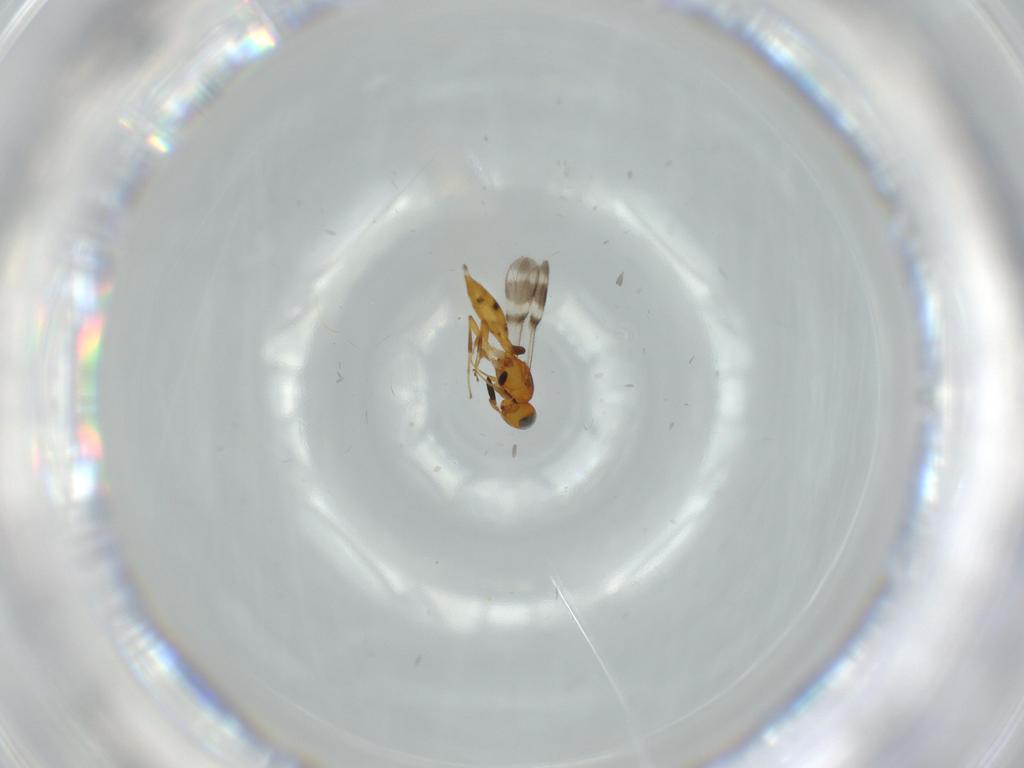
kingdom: Animalia
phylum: Arthropoda
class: Insecta
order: Hymenoptera
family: Scelionidae
